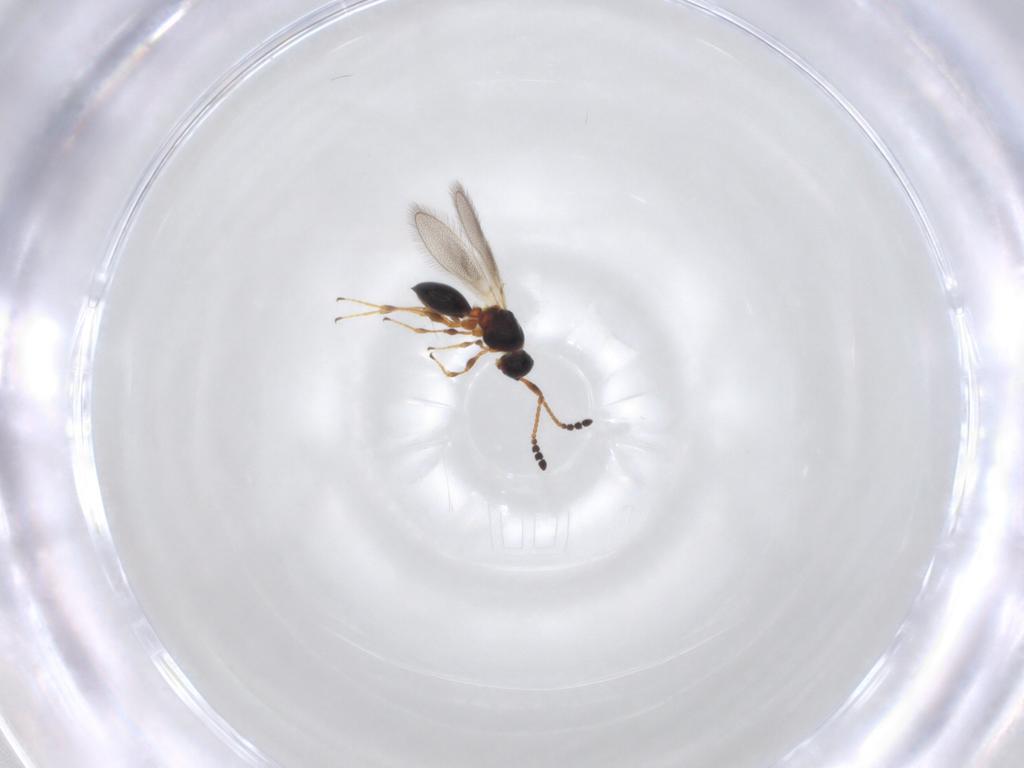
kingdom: Animalia
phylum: Arthropoda
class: Insecta
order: Hymenoptera
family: Diapriidae
